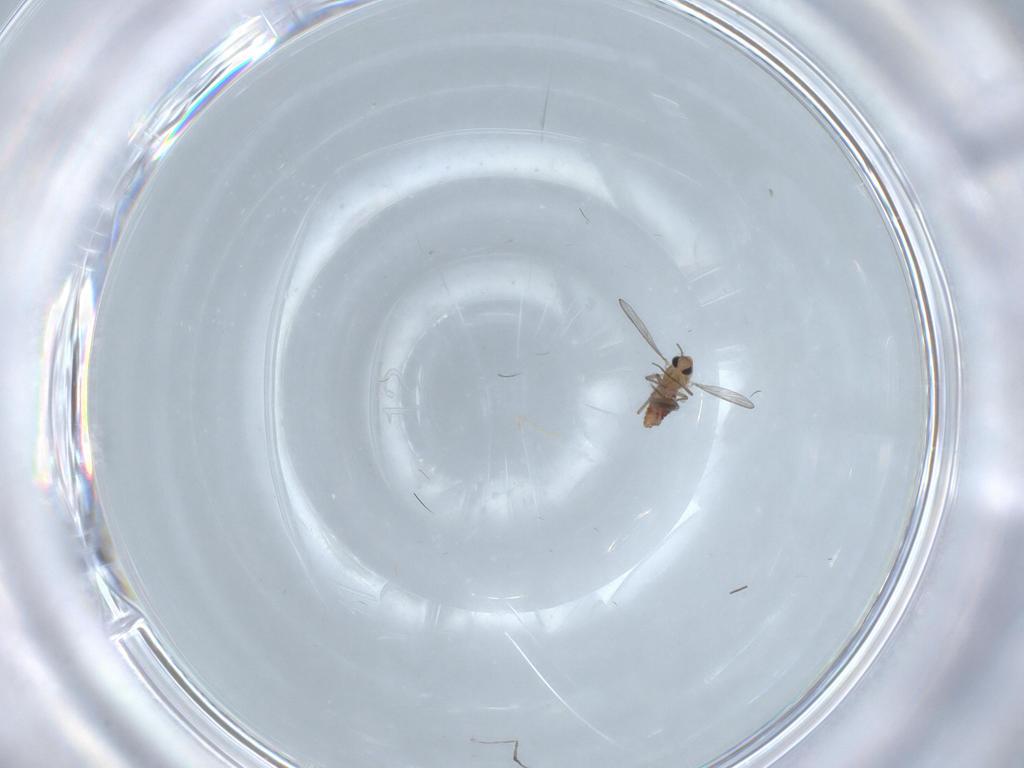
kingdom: Animalia
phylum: Arthropoda
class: Insecta
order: Diptera
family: Chironomidae
